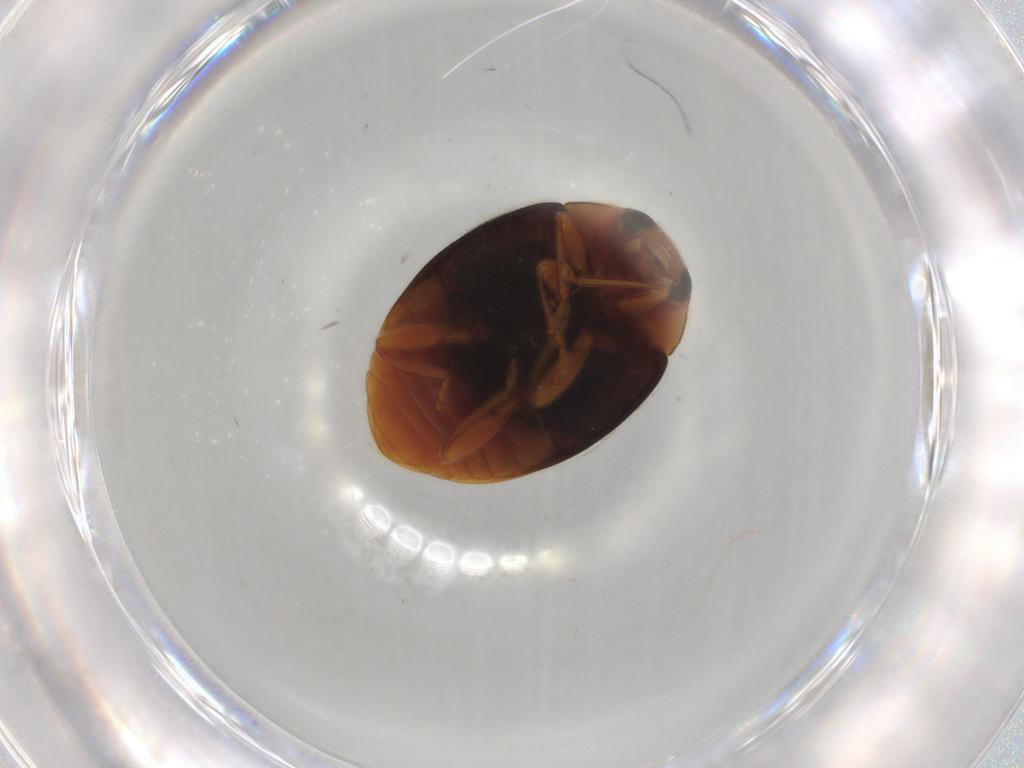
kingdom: Animalia
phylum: Arthropoda
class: Insecta
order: Coleoptera
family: Coccinellidae
